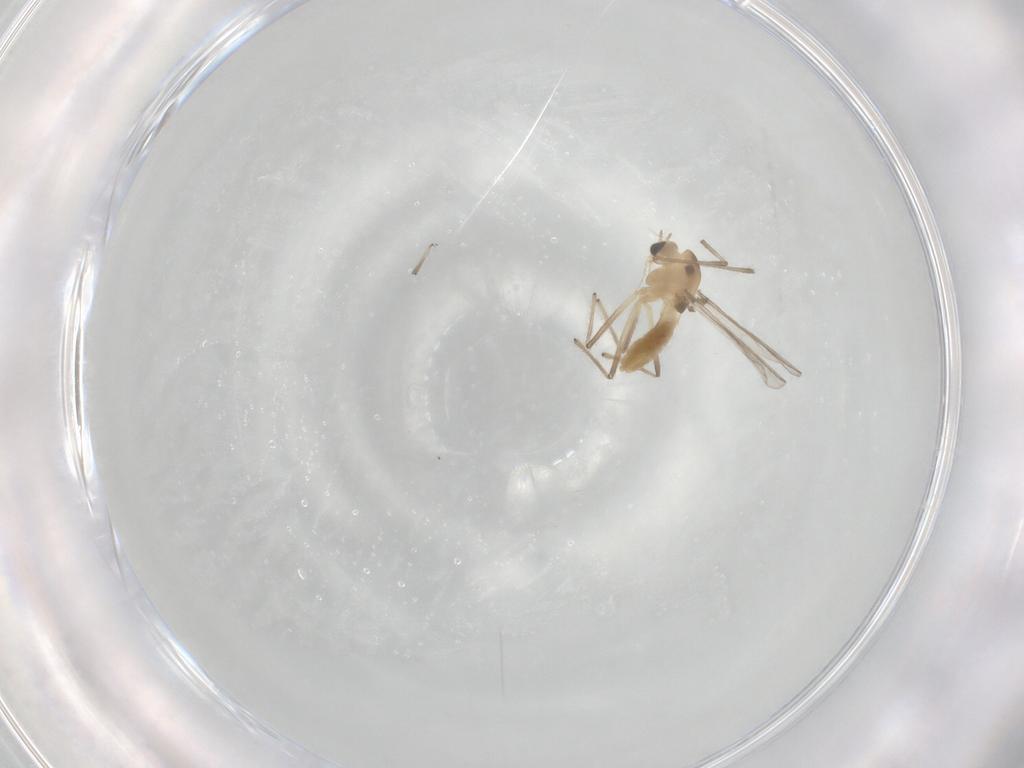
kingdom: Animalia
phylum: Arthropoda
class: Insecta
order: Diptera
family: Chironomidae
